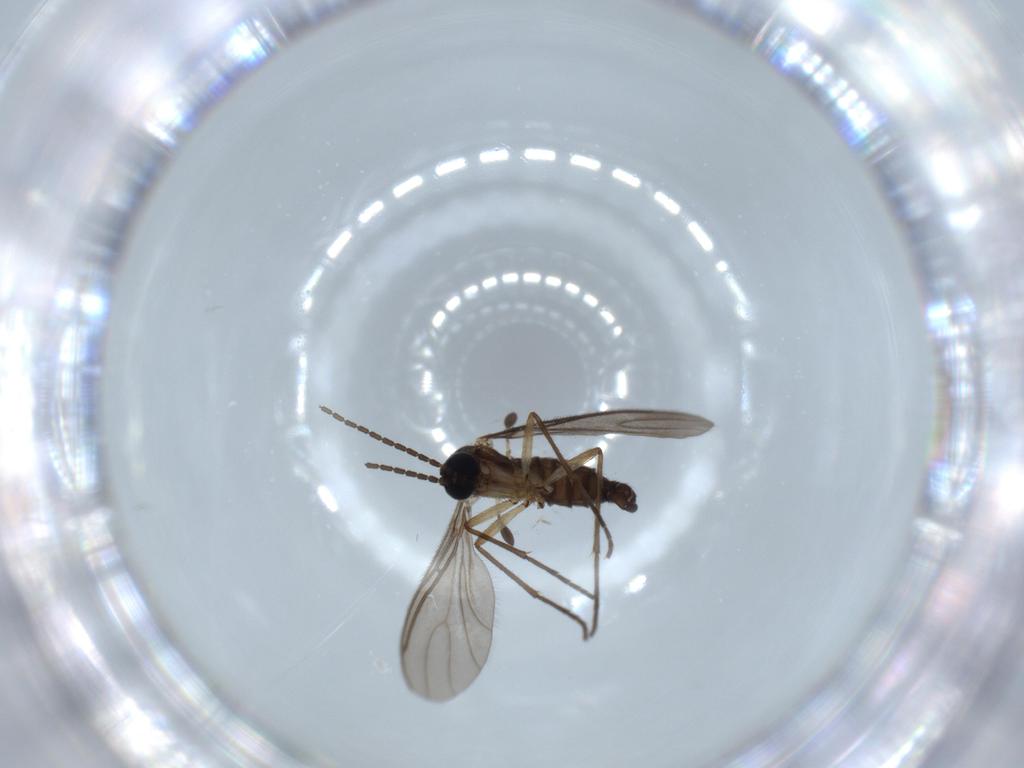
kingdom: Animalia
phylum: Arthropoda
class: Insecta
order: Diptera
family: Sciaridae
